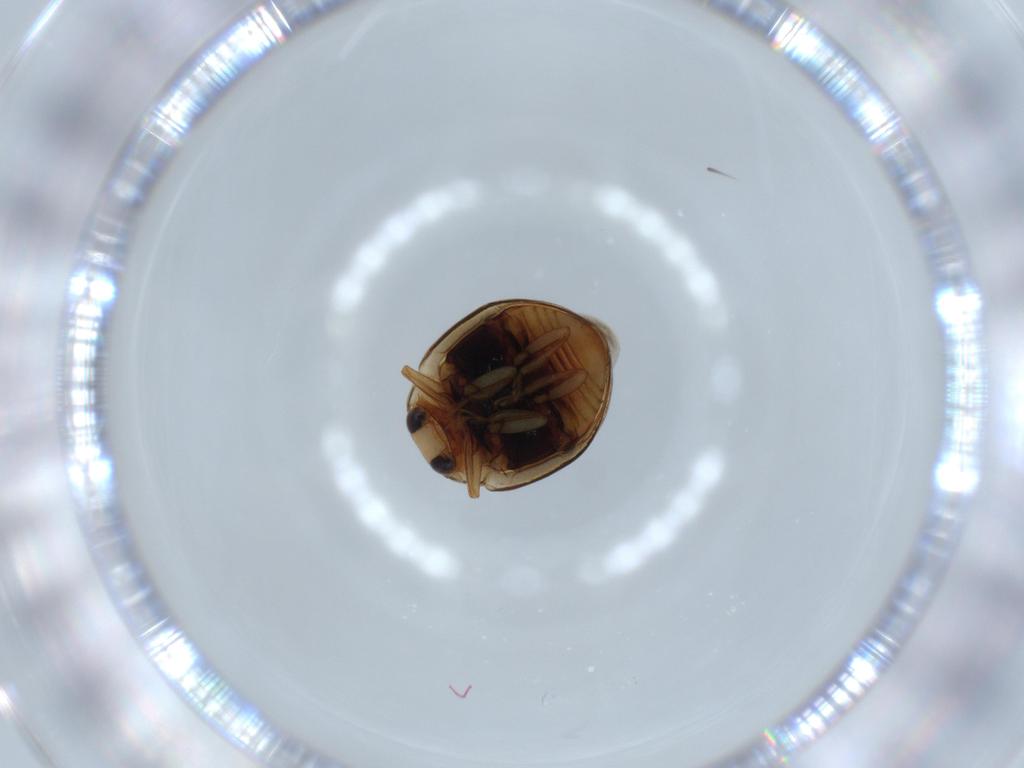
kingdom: Animalia
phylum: Arthropoda
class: Insecta
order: Coleoptera
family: Coccinellidae
